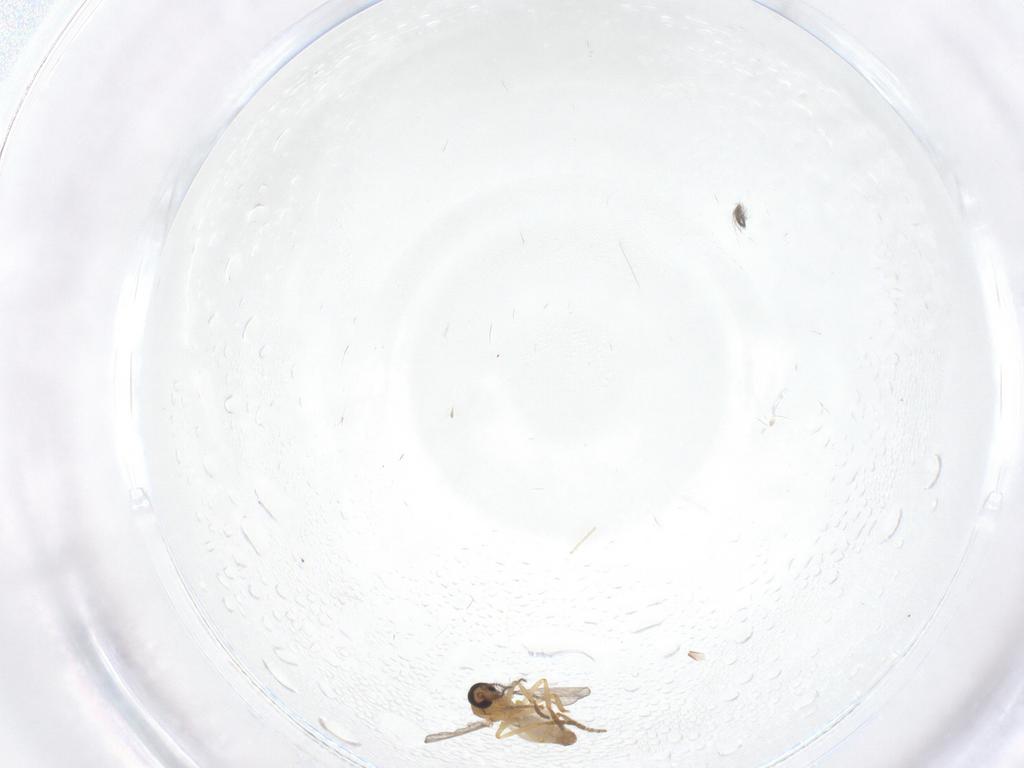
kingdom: Animalia
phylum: Arthropoda
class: Insecta
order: Diptera
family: Ceratopogonidae
